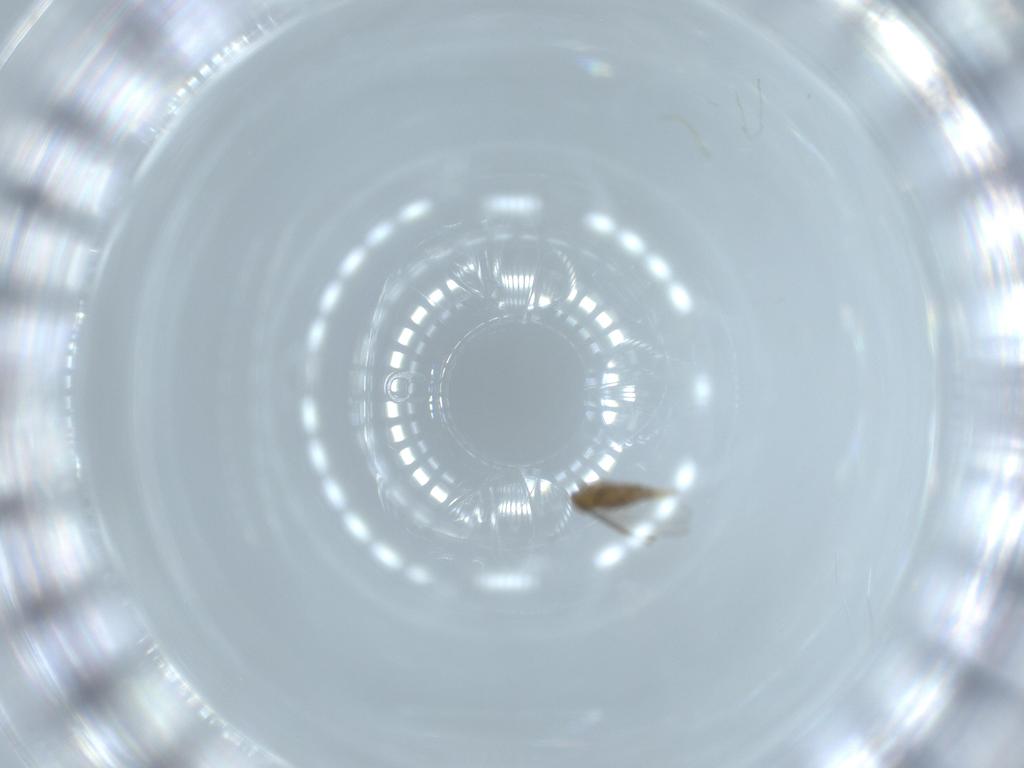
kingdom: Animalia
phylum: Arthropoda
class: Insecta
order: Diptera
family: Cecidomyiidae
